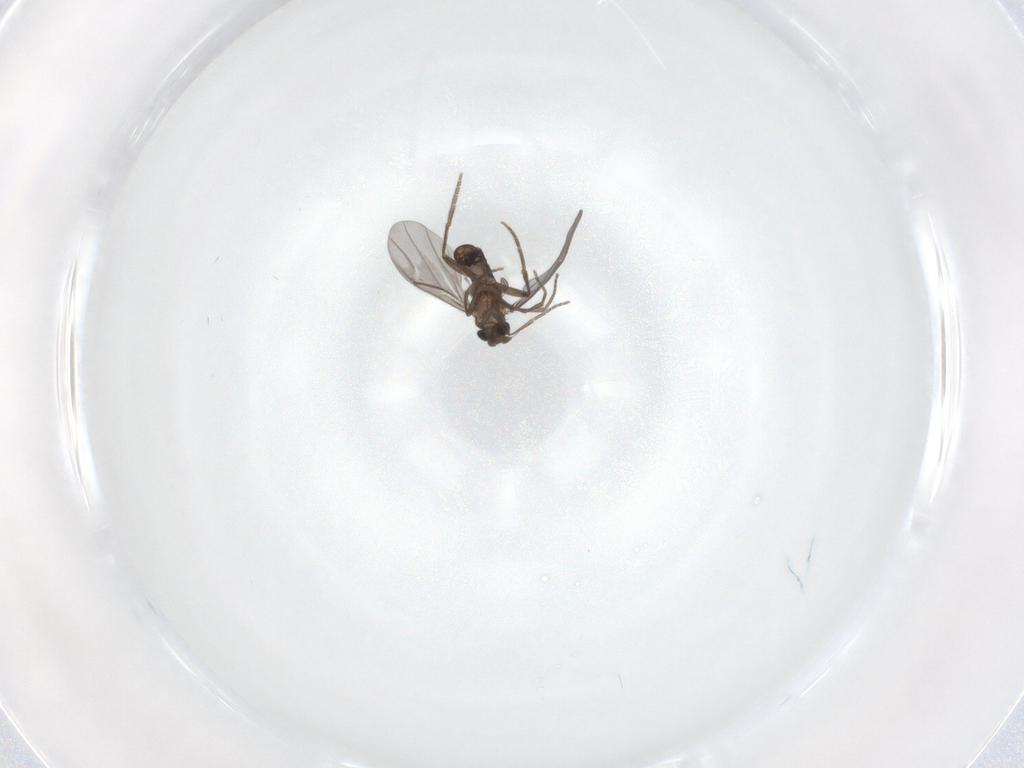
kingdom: Animalia
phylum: Arthropoda
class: Insecta
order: Diptera
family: Phoridae
